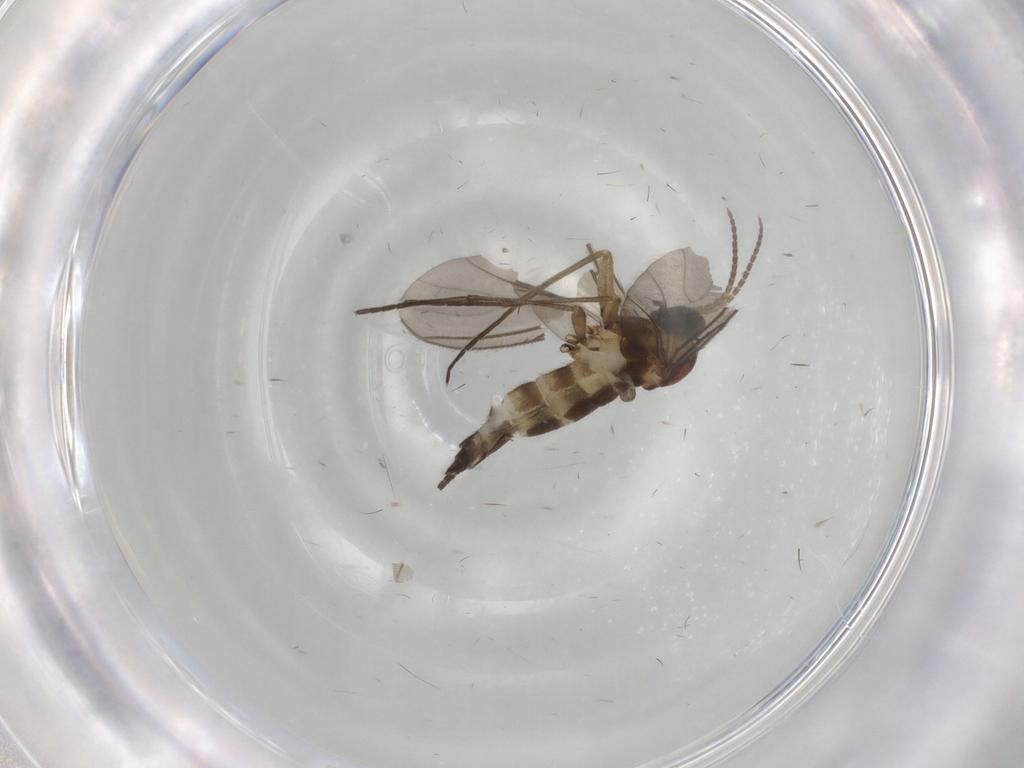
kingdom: Animalia
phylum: Arthropoda
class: Insecta
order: Diptera
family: Sciaridae
